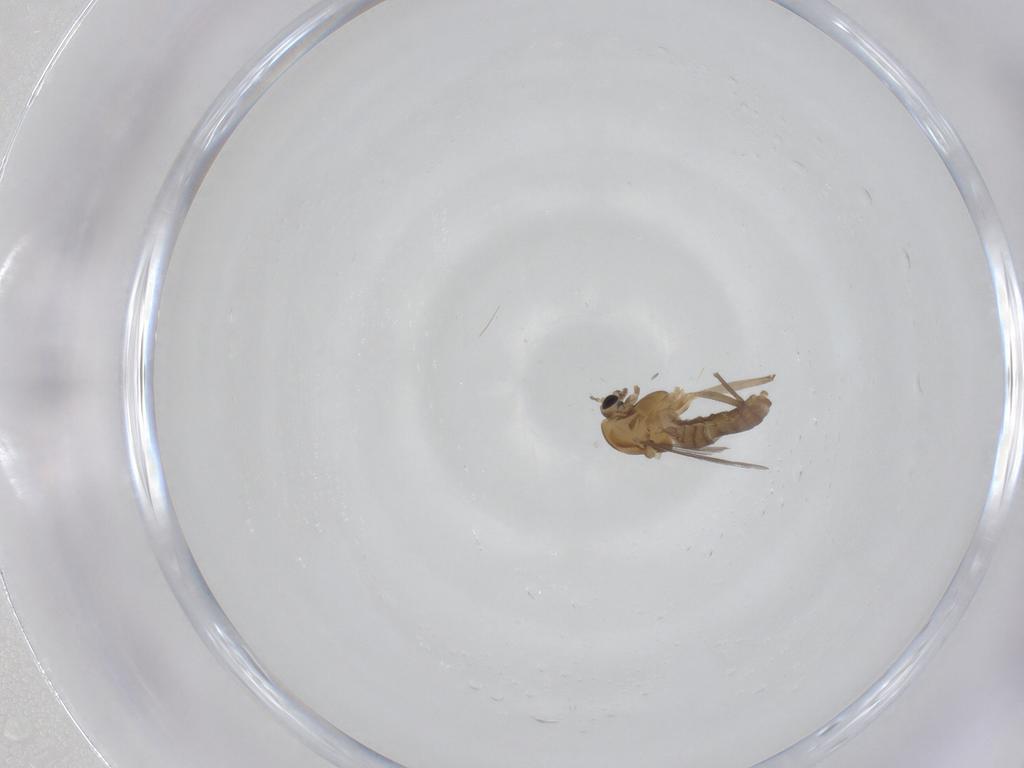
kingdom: Animalia
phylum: Arthropoda
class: Insecta
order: Diptera
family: Chironomidae
